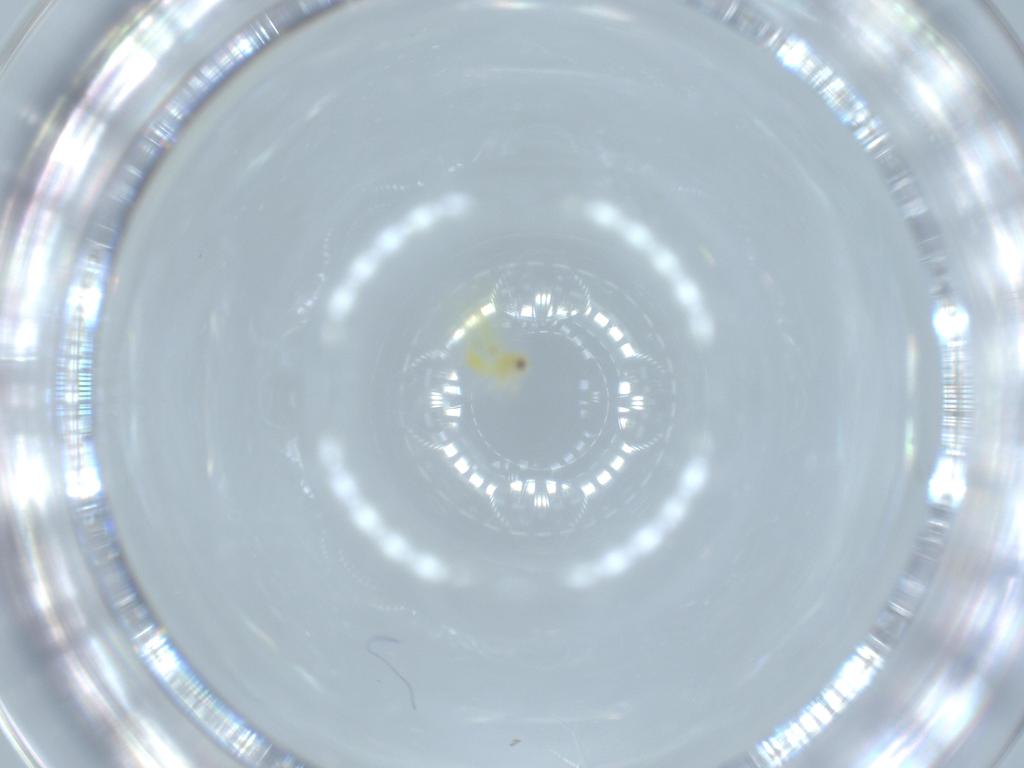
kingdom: Animalia
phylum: Arthropoda
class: Insecta
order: Hemiptera
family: Aleyrodidae
